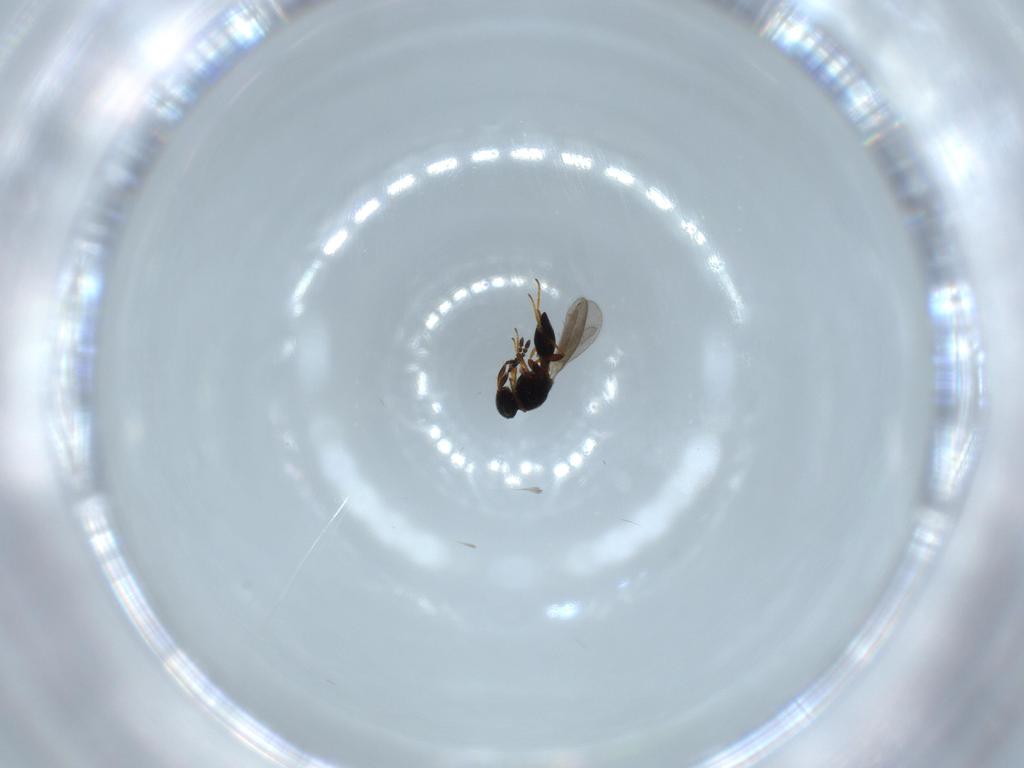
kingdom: Animalia
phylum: Arthropoda
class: Insecta
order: Hymenoptera
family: Platygastridae
